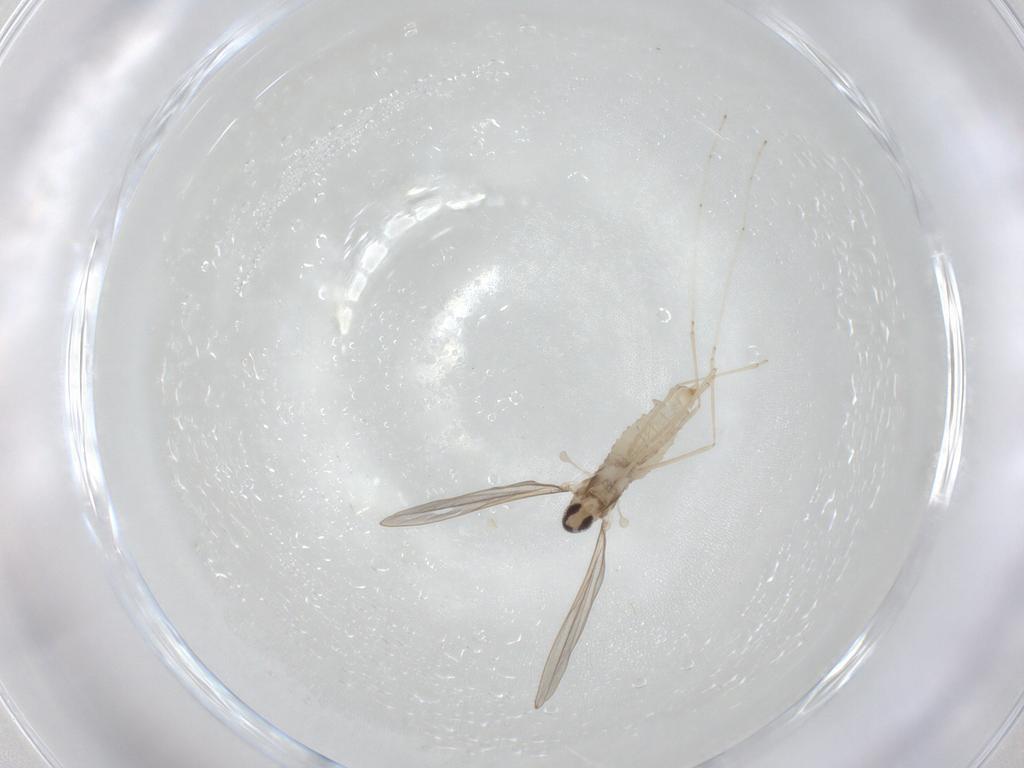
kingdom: Animalia
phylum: Arthropoda
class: Insecta
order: Diptera
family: Cecidomyiidae
